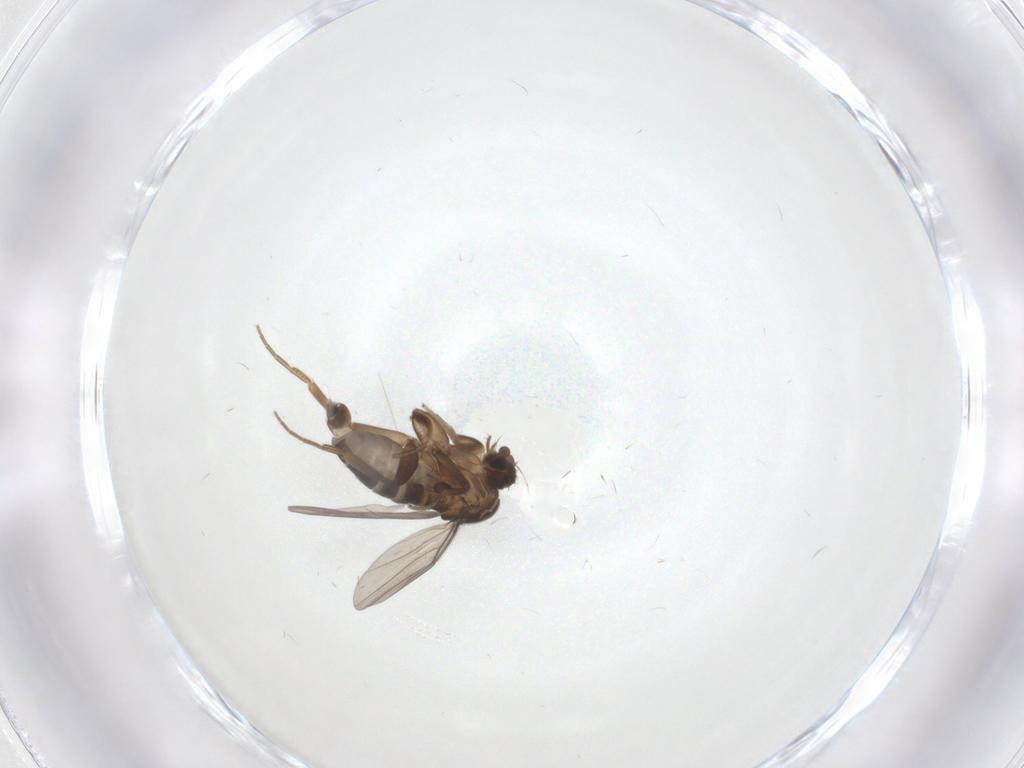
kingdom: Animalia
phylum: Arthropoda
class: Insecta
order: Diptera
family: Phoridae
